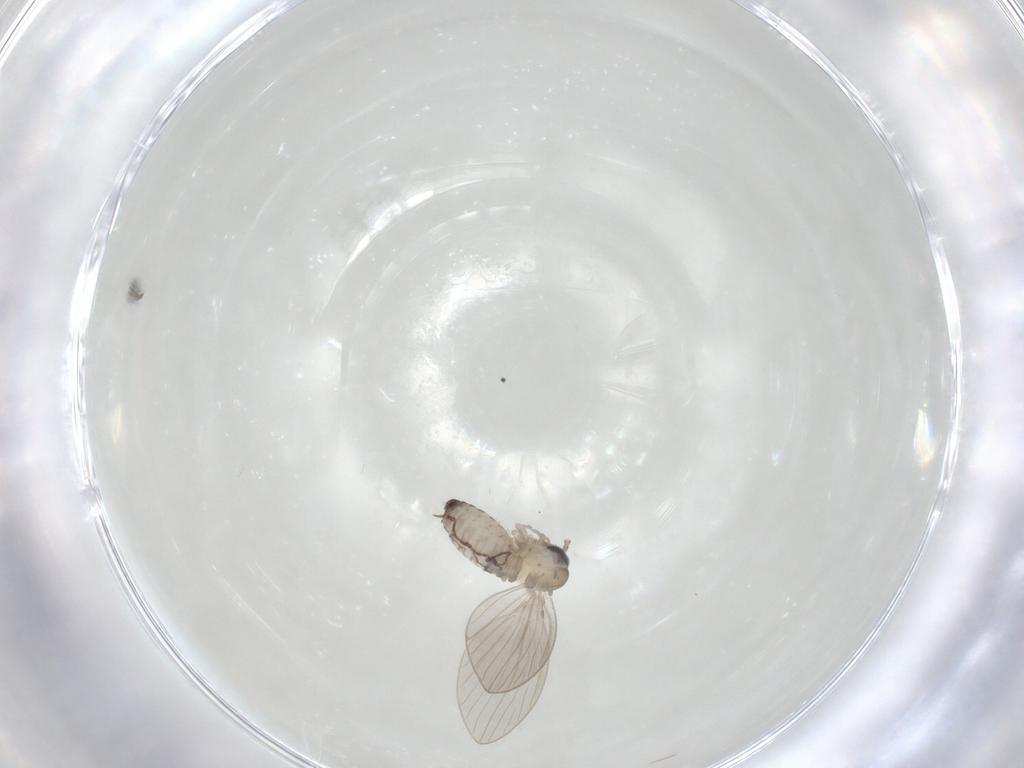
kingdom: Animalia
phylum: Arthropoda
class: Insecta
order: Diptera
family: Psychodidae
